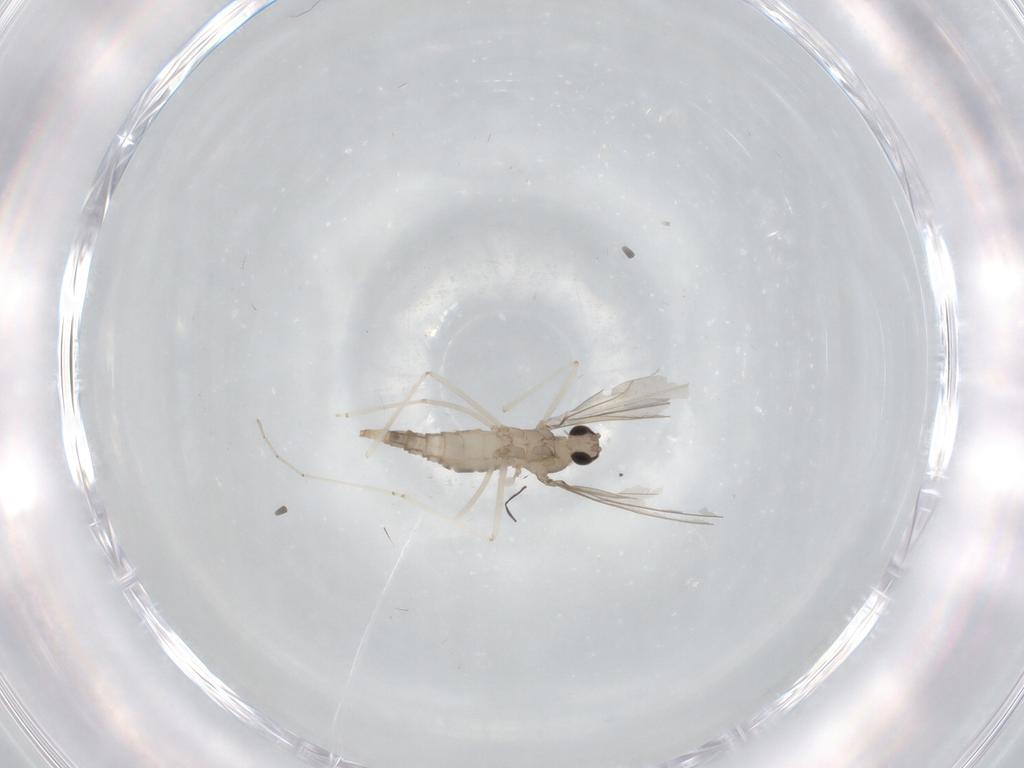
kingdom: Animalia
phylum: Arthropoda
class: Insecta
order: Diptera
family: Cecidomyiidae
